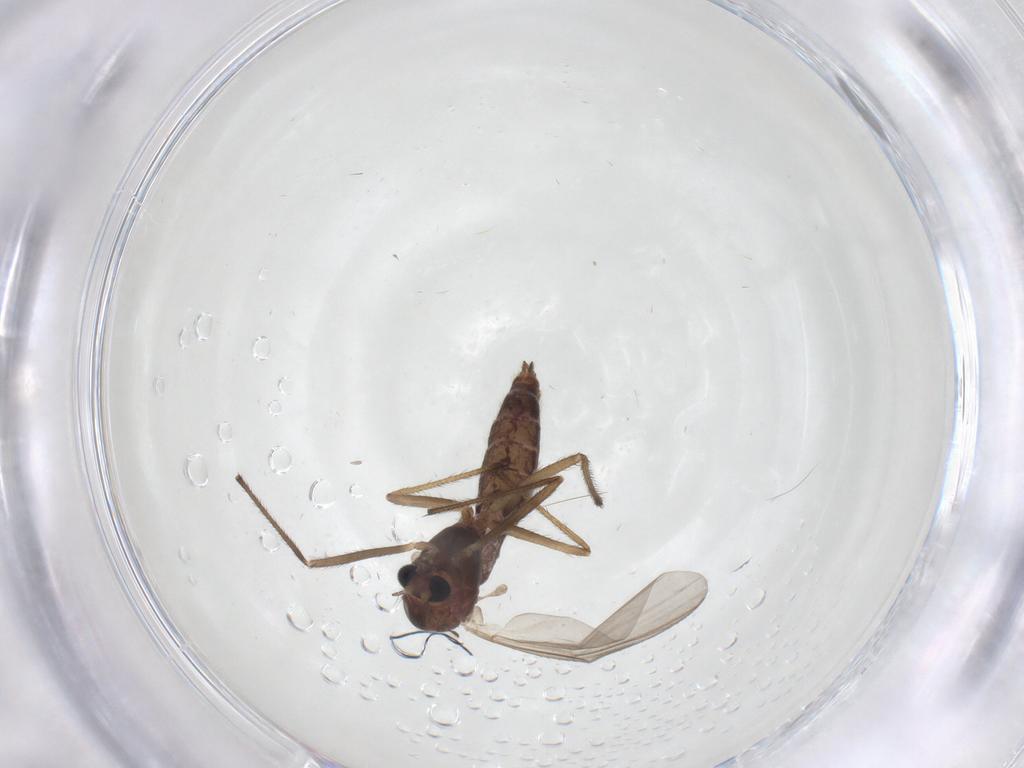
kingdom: Animalia
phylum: Arthropoda
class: Insecta
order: Diptera
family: Chironomidae
